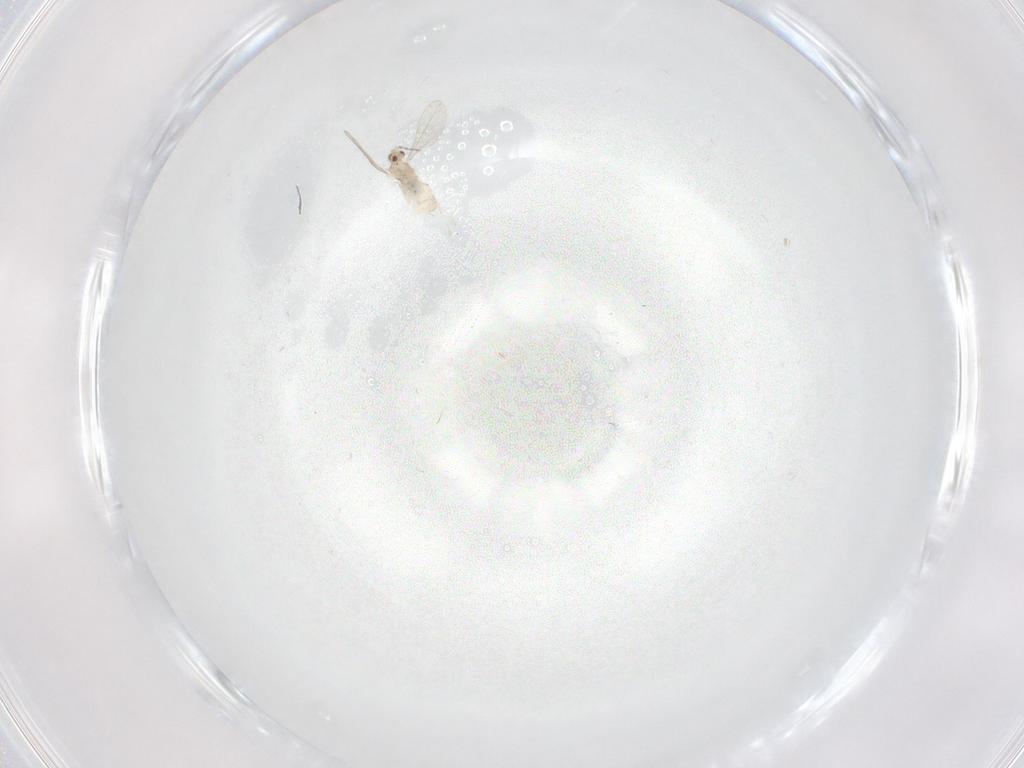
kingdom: Animalia
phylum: Arthropoda
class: Insecta
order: Diptera
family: Cecidomyiidae
